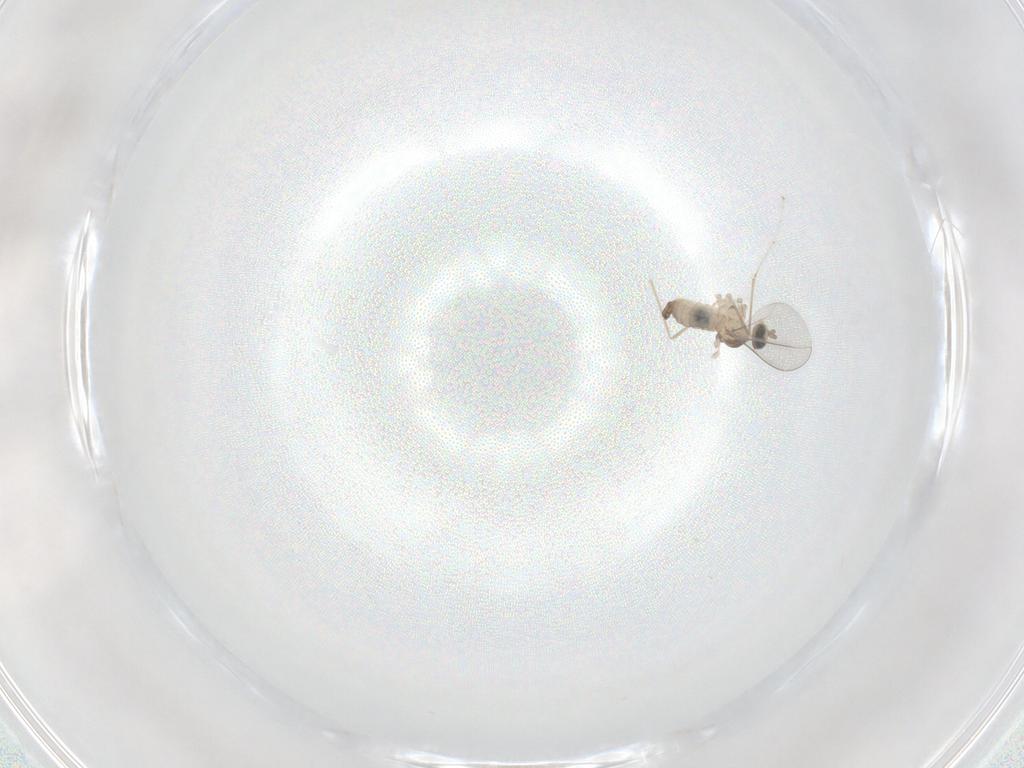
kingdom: Animalia
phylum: Arthropoda
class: Insecta
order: Diptera
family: Cecidomyiidae
